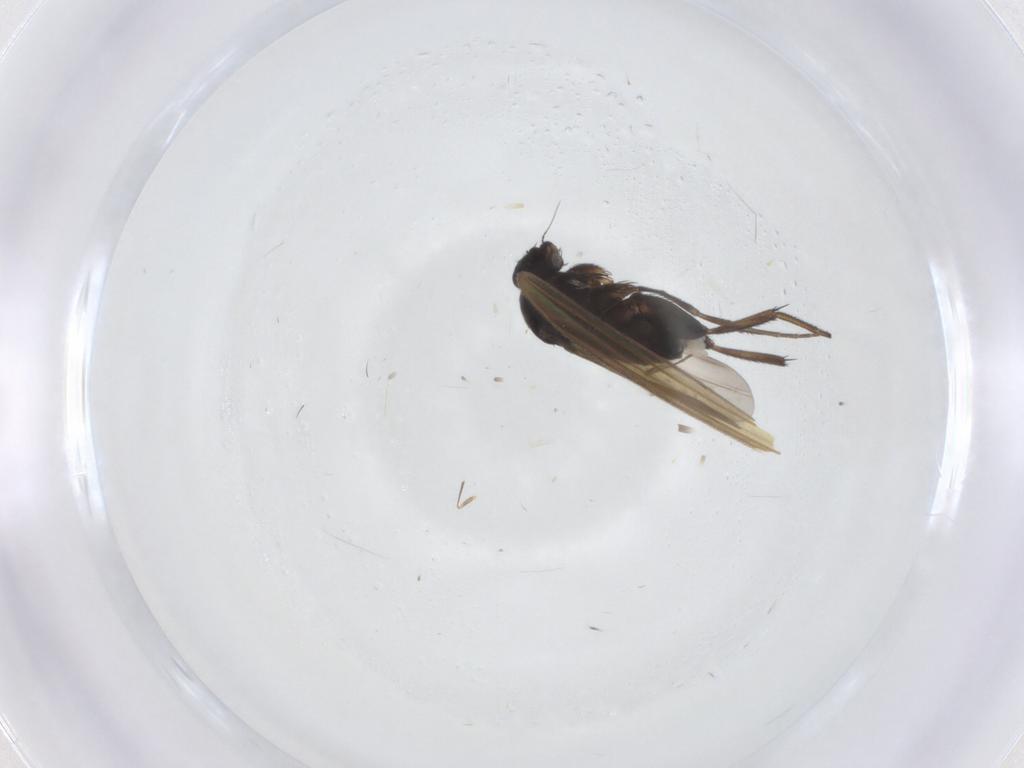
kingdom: Animalia
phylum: Arthropoda
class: Insecta
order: Diptera
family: Phoridae
